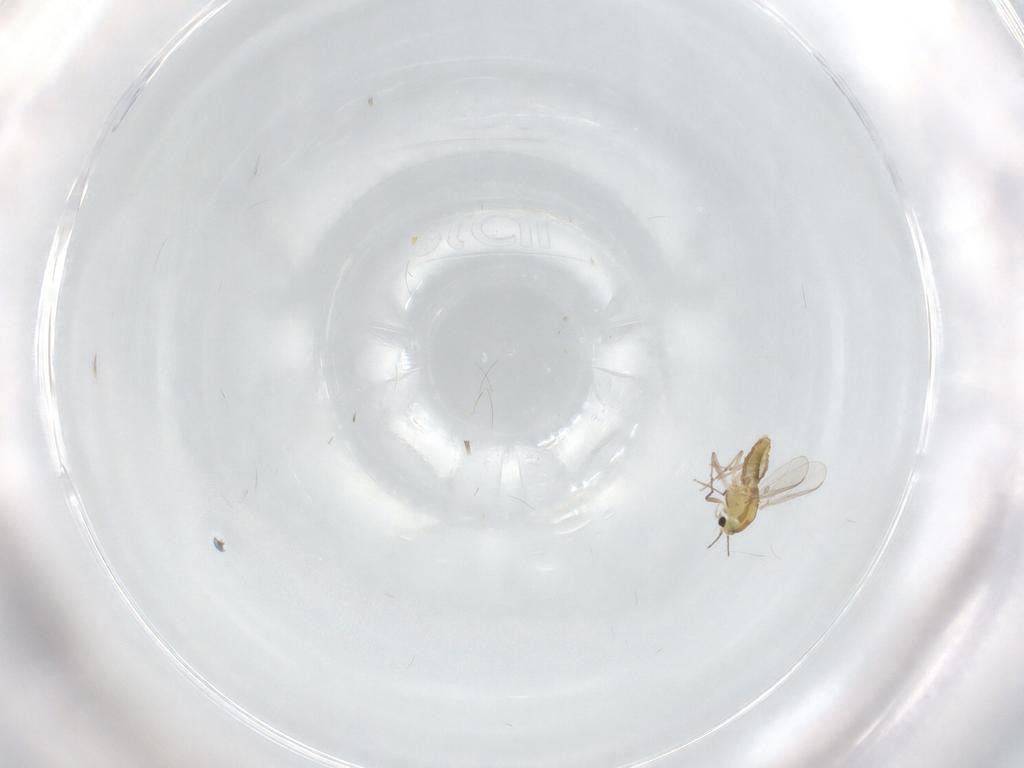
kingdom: Animalia
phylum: Arthropoda
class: Insecta
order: Diptera
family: Chironomidae
